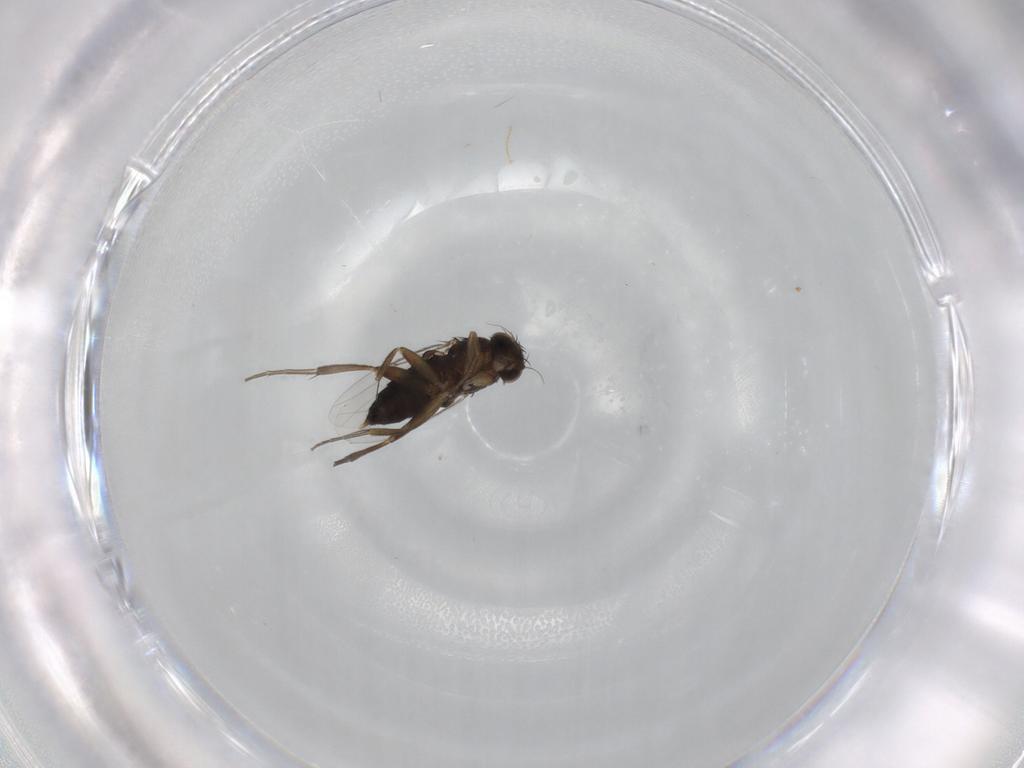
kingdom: Animalia
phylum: Arthropoda
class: Insecta
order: Diptera
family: Phoridae
